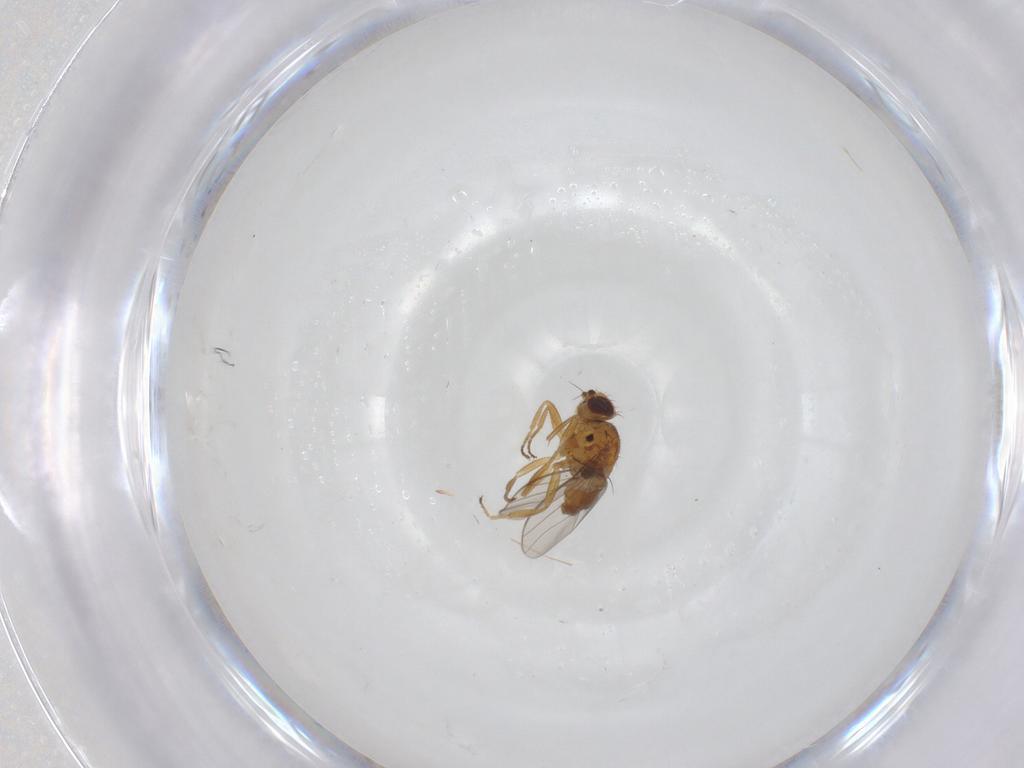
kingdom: Animalia
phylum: Arthropoda
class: Insecta
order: Diptera
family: Chloropidae
